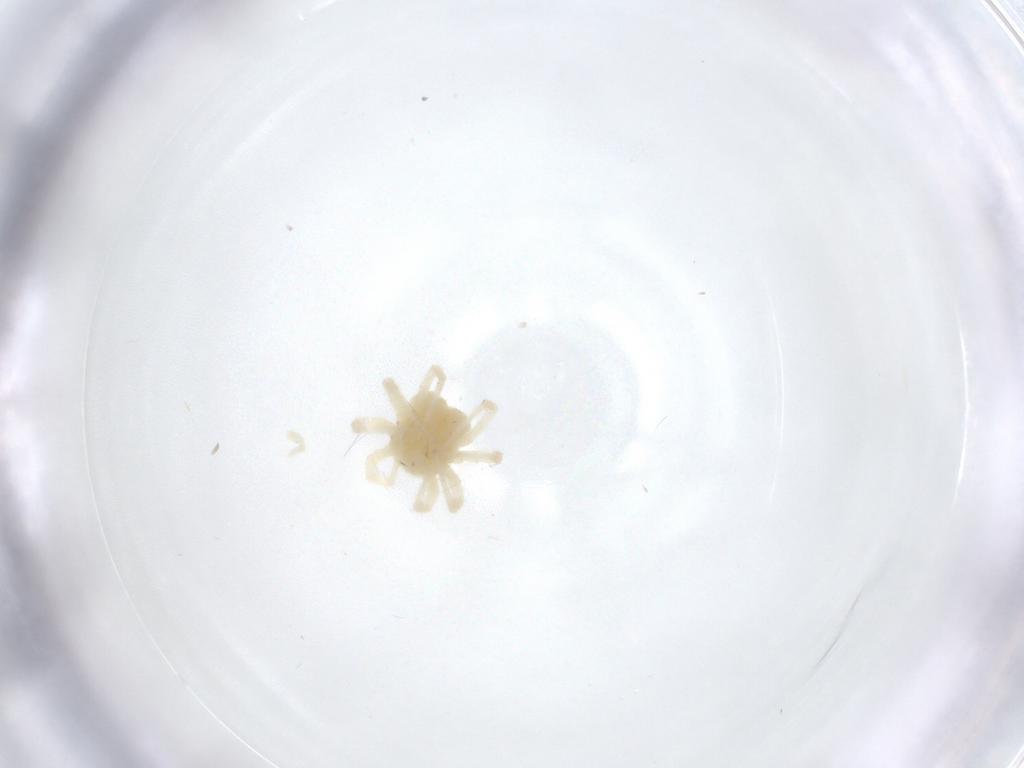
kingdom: Animalia
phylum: Arthropoda
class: Arachnida
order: Trombidiformes
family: Anystidae
